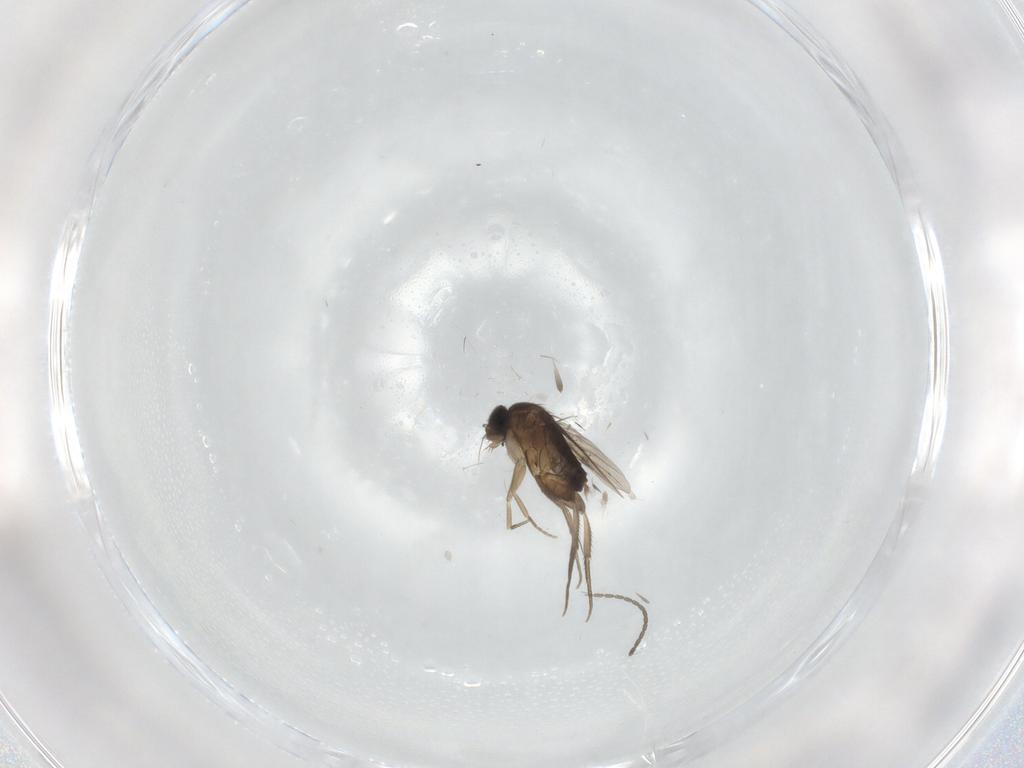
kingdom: Animalia
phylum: Arthropoda
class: Insecta
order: Diptera
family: Phoridae
